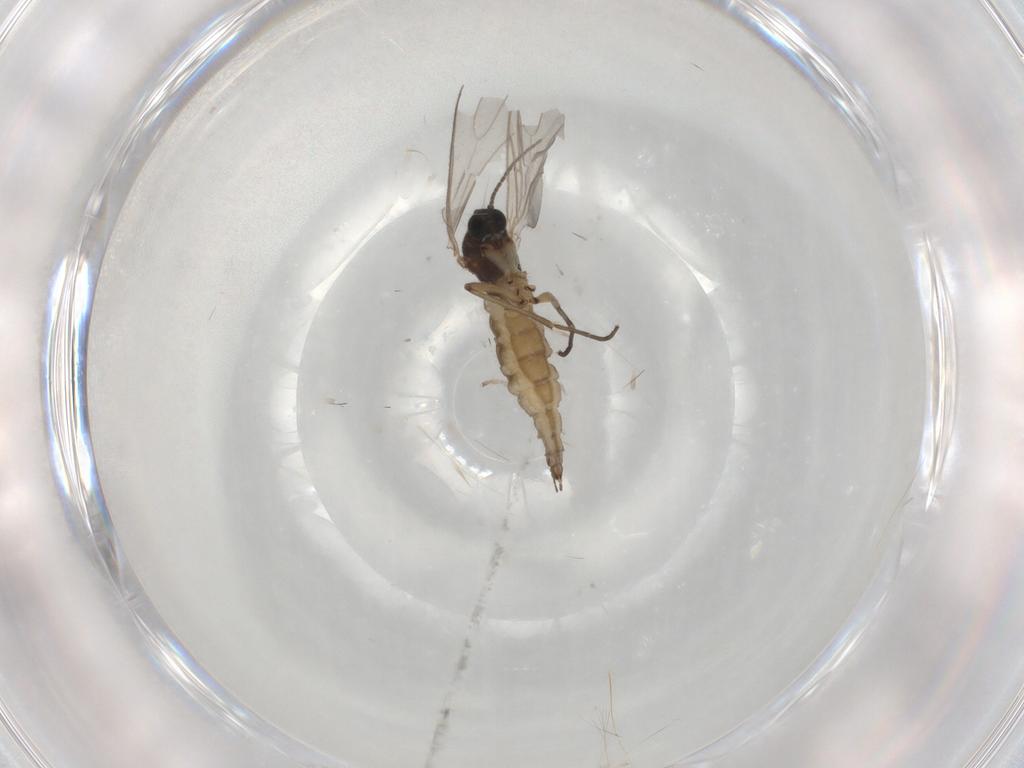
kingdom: Animalia
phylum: Arthropoda
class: Insecta
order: Diptera
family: Sciaridae
